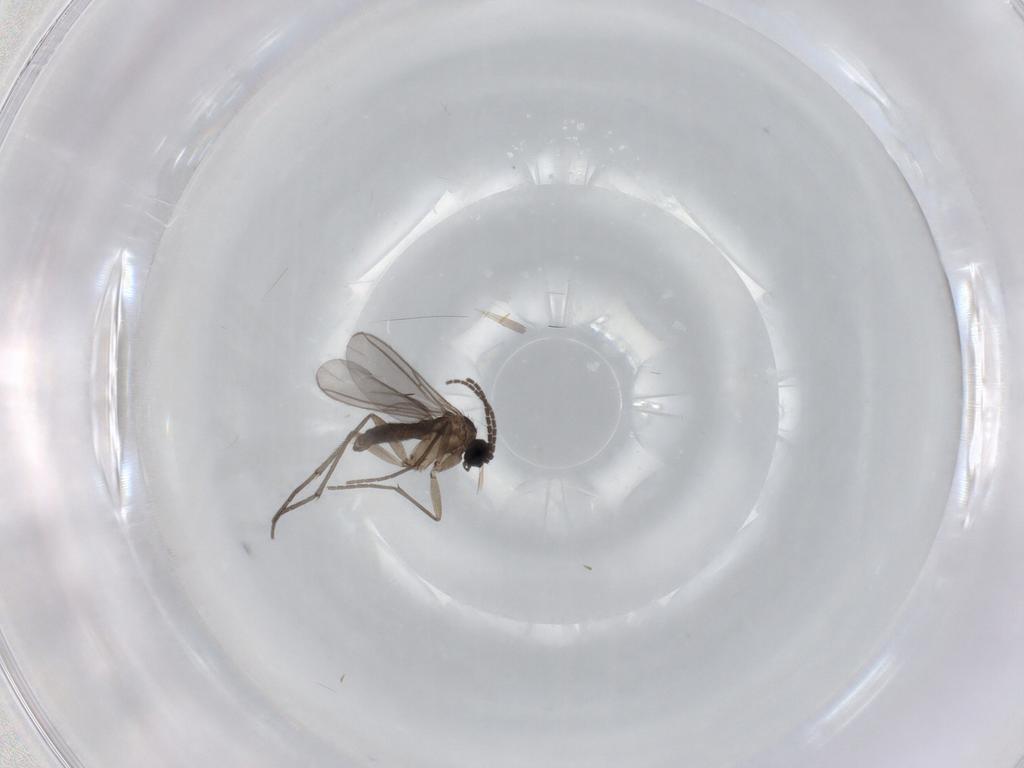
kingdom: Animalia
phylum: Arthropoda
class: Insecta
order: Diptera
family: Sciaridae
